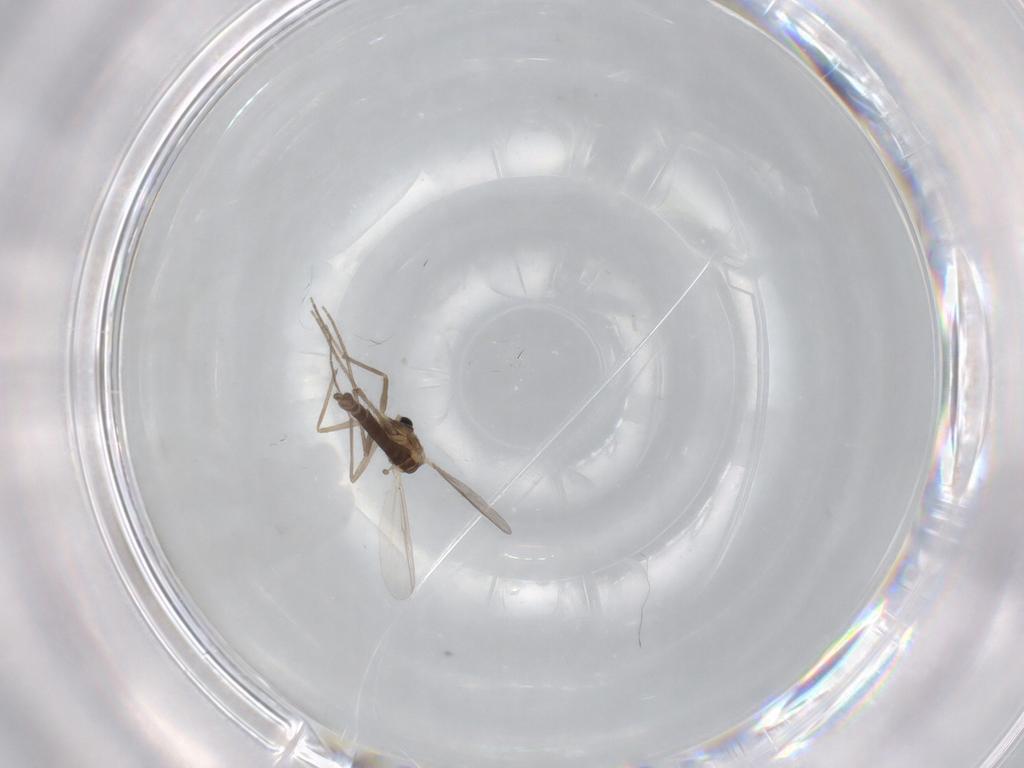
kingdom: Animalia
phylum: Arthropoda
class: Insecta
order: Diptera
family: Chironomidae
